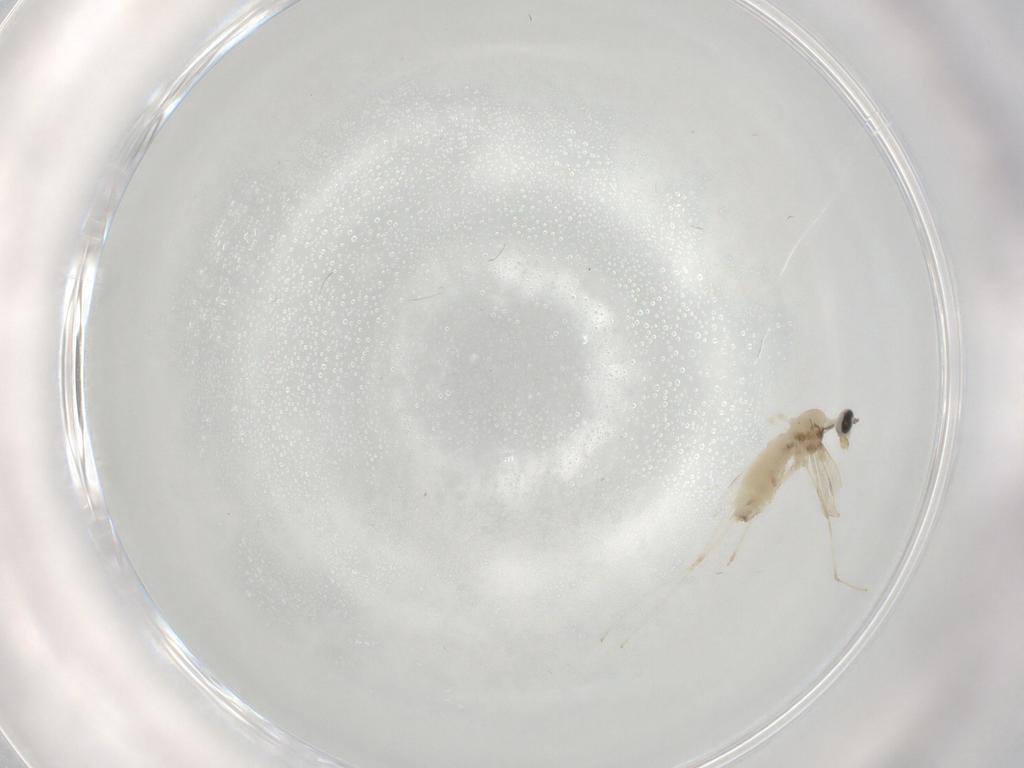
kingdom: Animalia
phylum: Arthropoda
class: Insecta
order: Diptera
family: Cecidomyiidae
